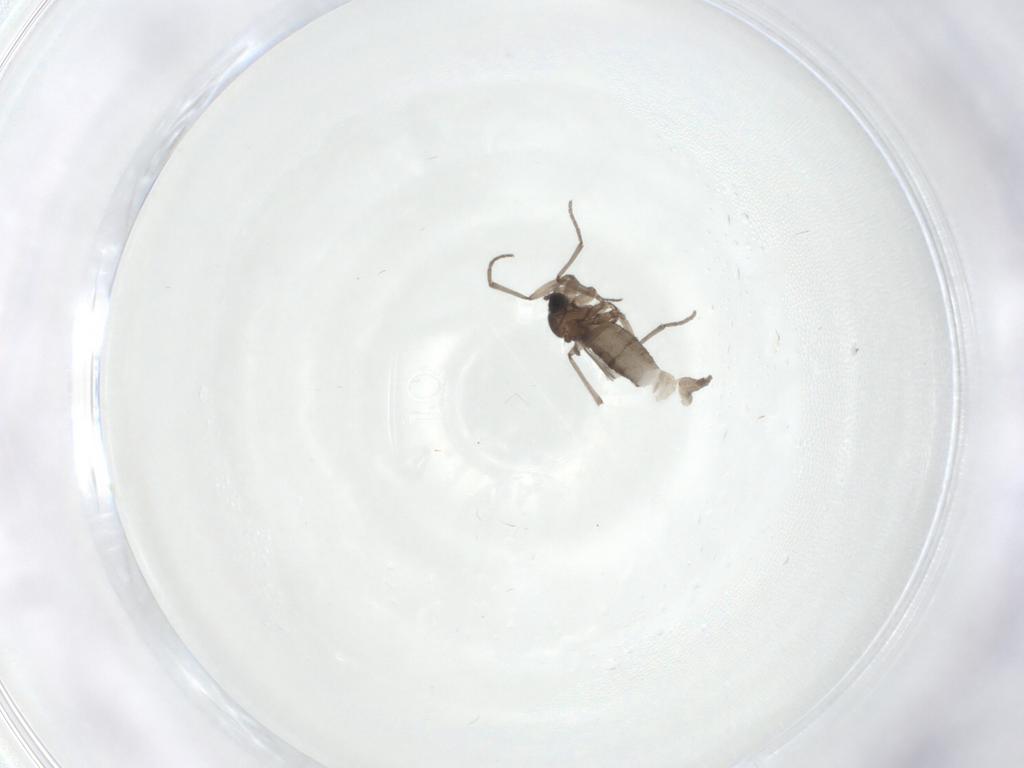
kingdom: Animalia
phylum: Arthropoda
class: Insecta
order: Diptera
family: Sciaridae
